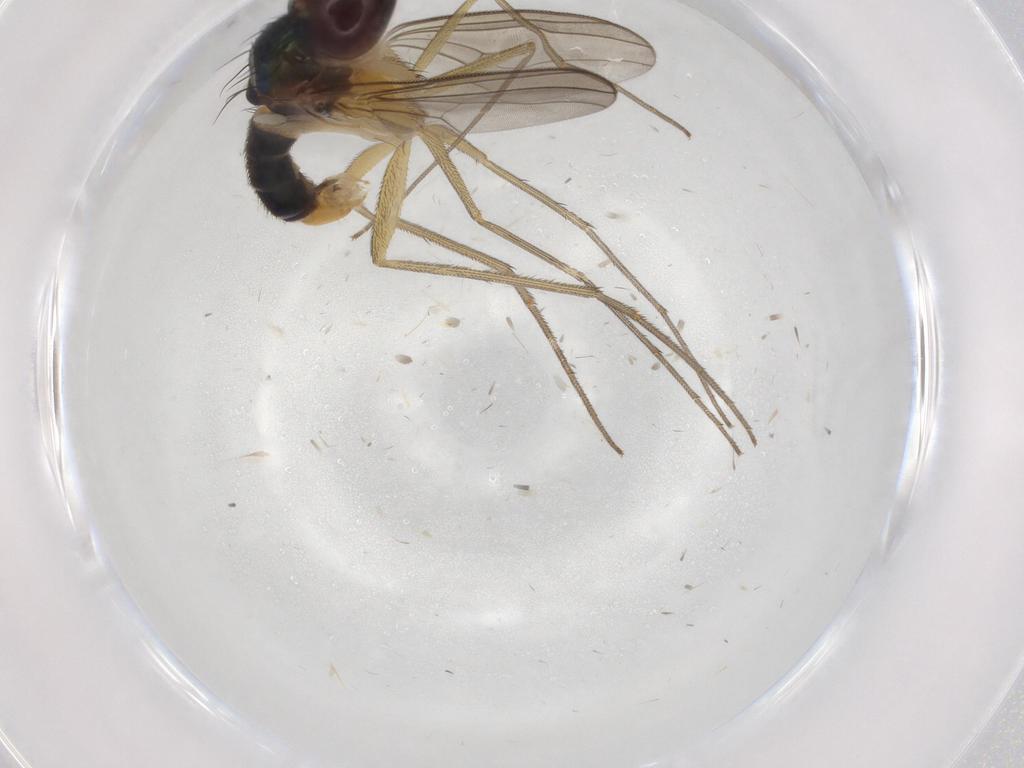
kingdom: Animalia
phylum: Arthropoda
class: Insecta
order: Diptera
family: Dolichopodidae
